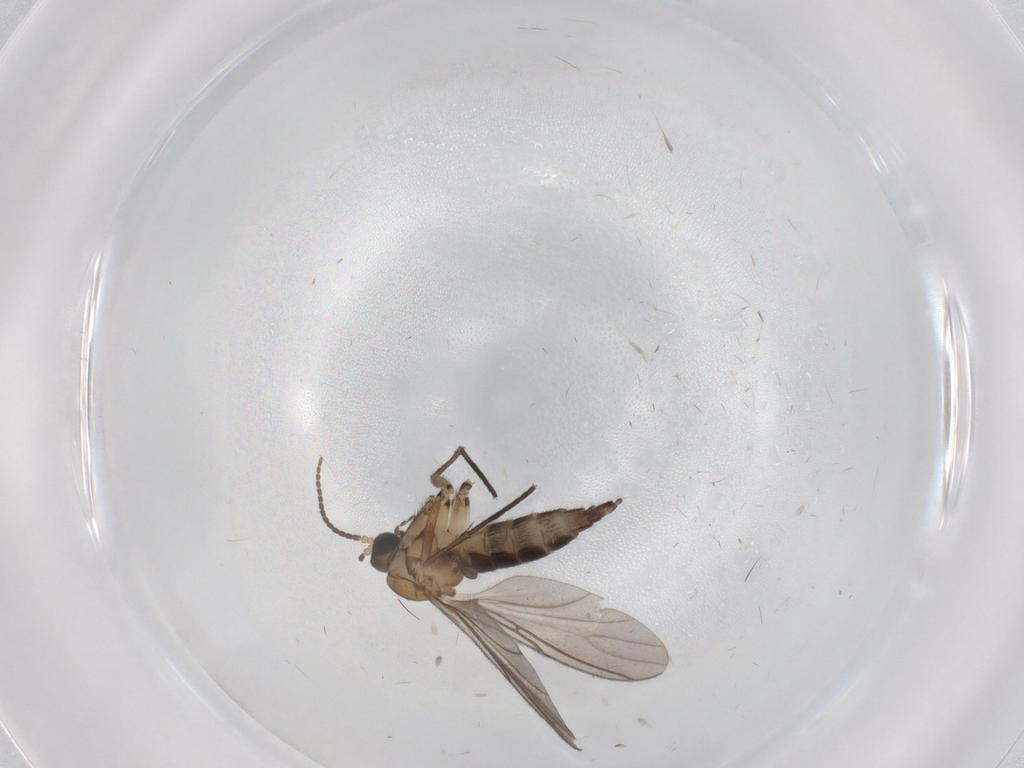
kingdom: Animalia
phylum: Arthropoda
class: Insecta
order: Diptera
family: Sciaridae
